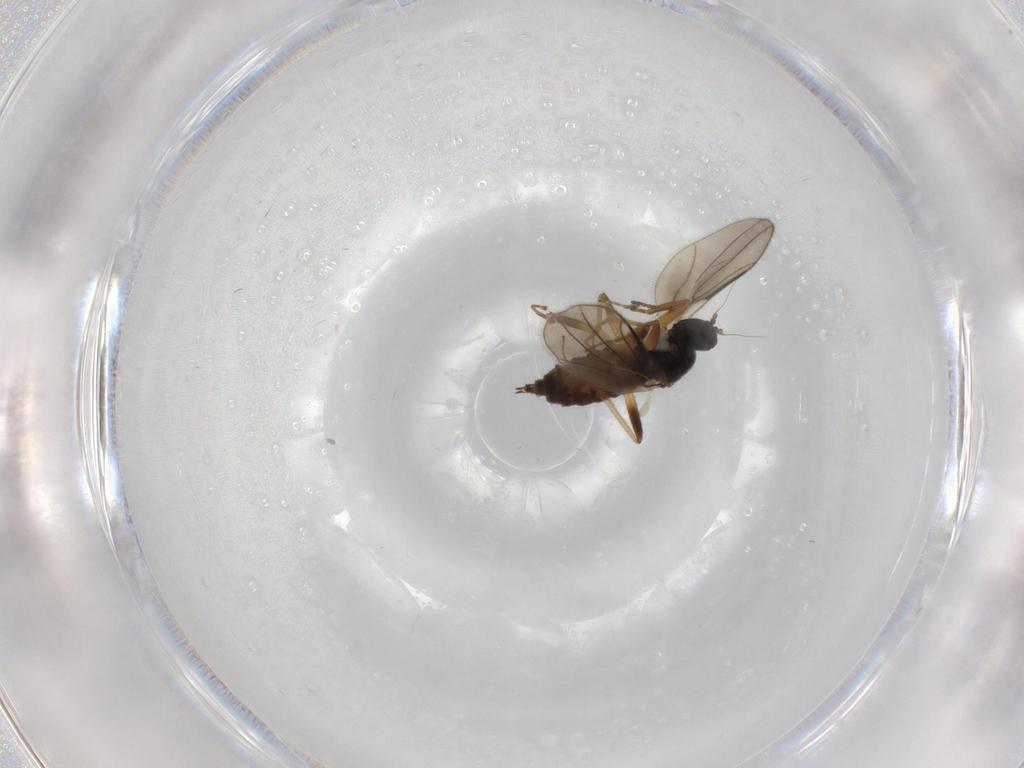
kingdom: Animalia
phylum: Arthropoda
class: Insecta
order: Diptera
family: Hybotidae
